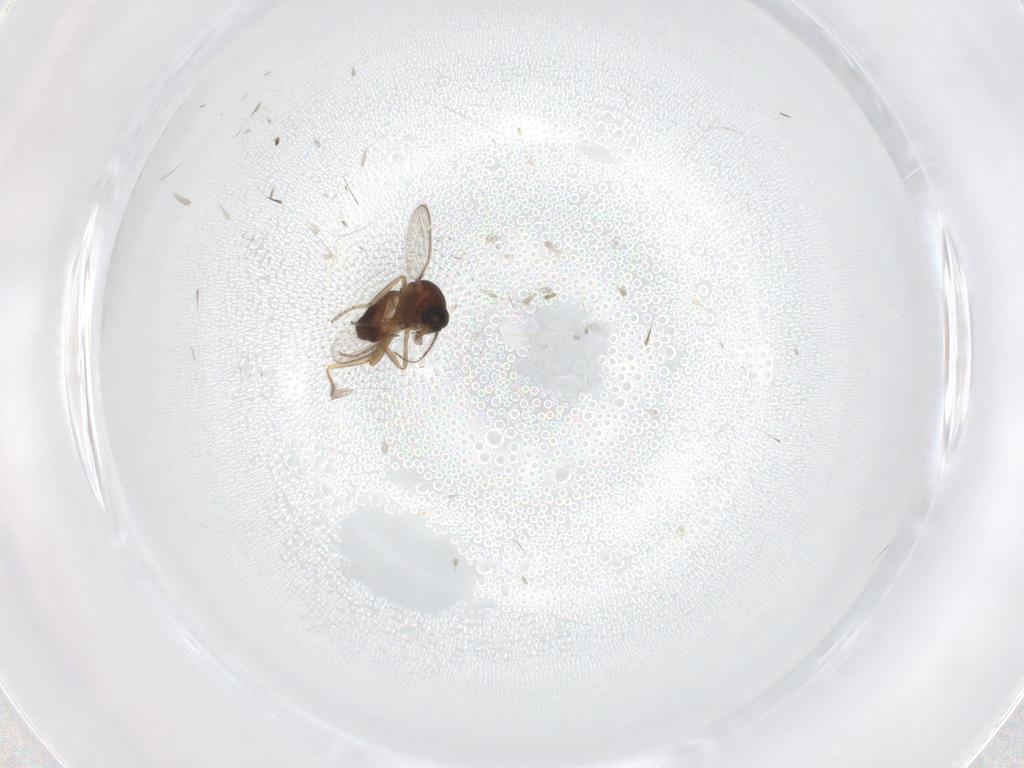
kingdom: Animalia
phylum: Arthropoda
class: Insecta
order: Diptera
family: Ceratopogonidae
